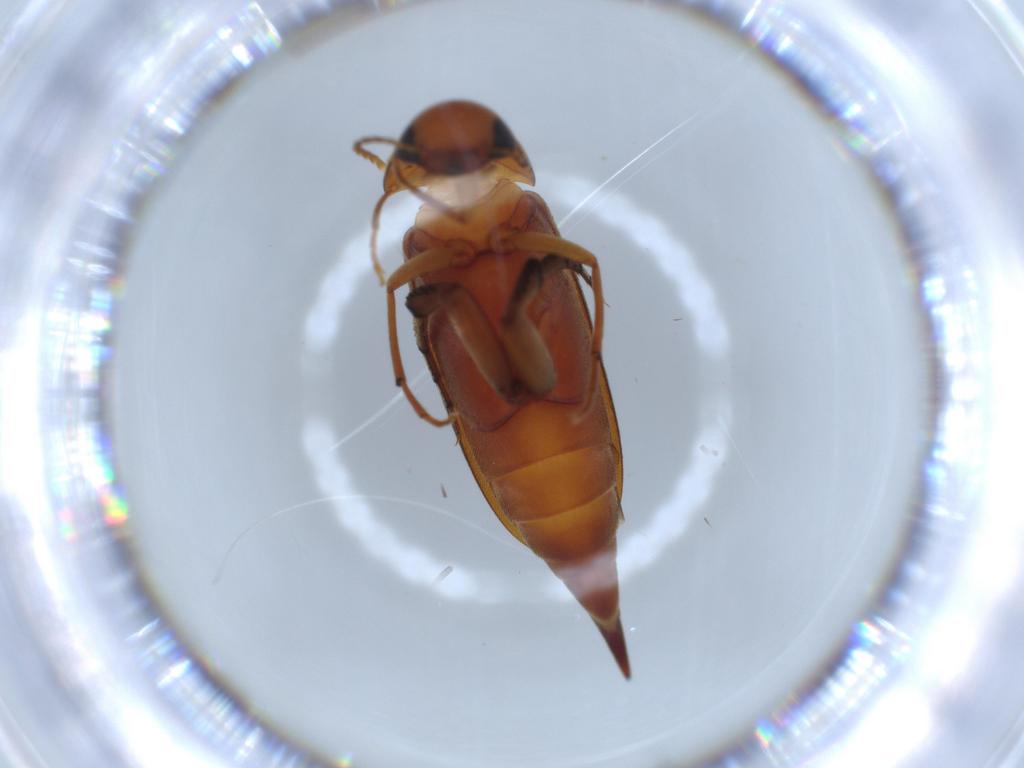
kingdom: Animalia
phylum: Arthropoda
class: Insecta
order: Coleoptera
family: Mordellidae
